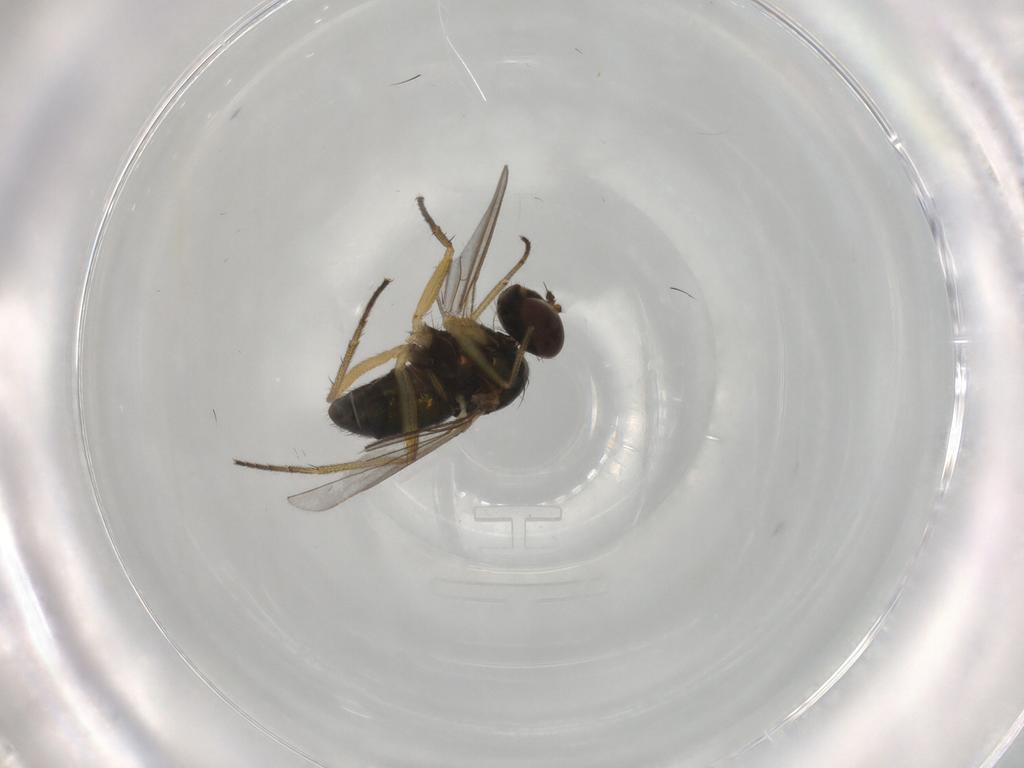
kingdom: Animalia
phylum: Arthropoda
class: Insecta
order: Diptera
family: Dolichopodidae
